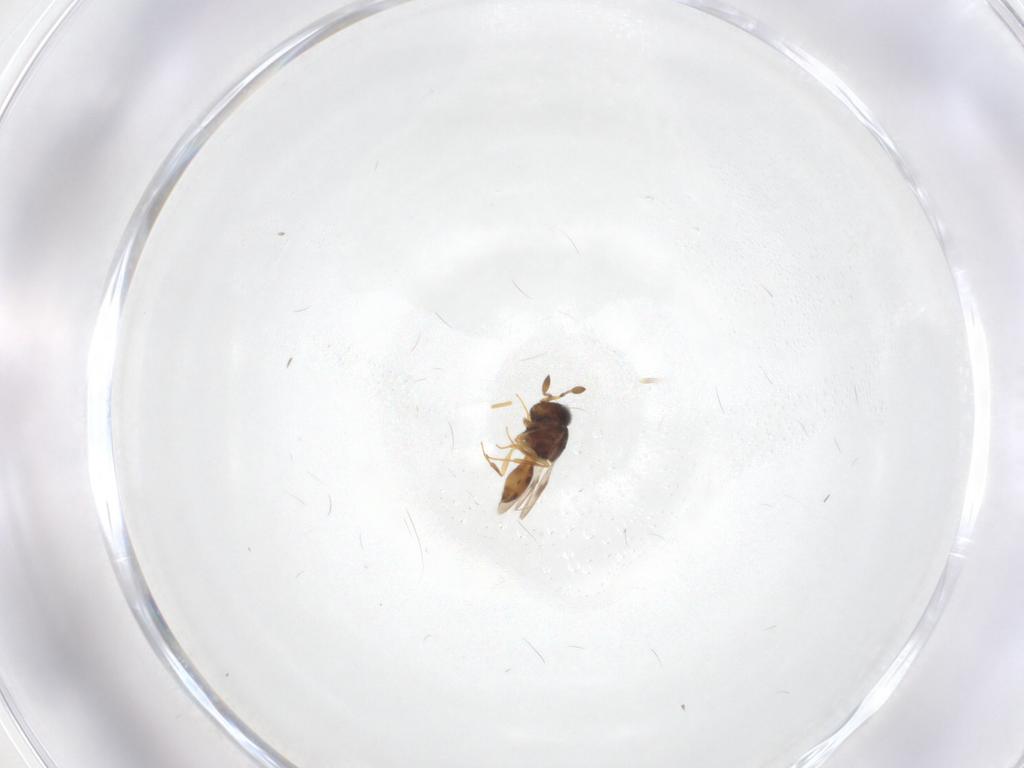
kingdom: Animalia
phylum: Arthropoda
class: Insecta
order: Hymenoptera
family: Scelionidae
